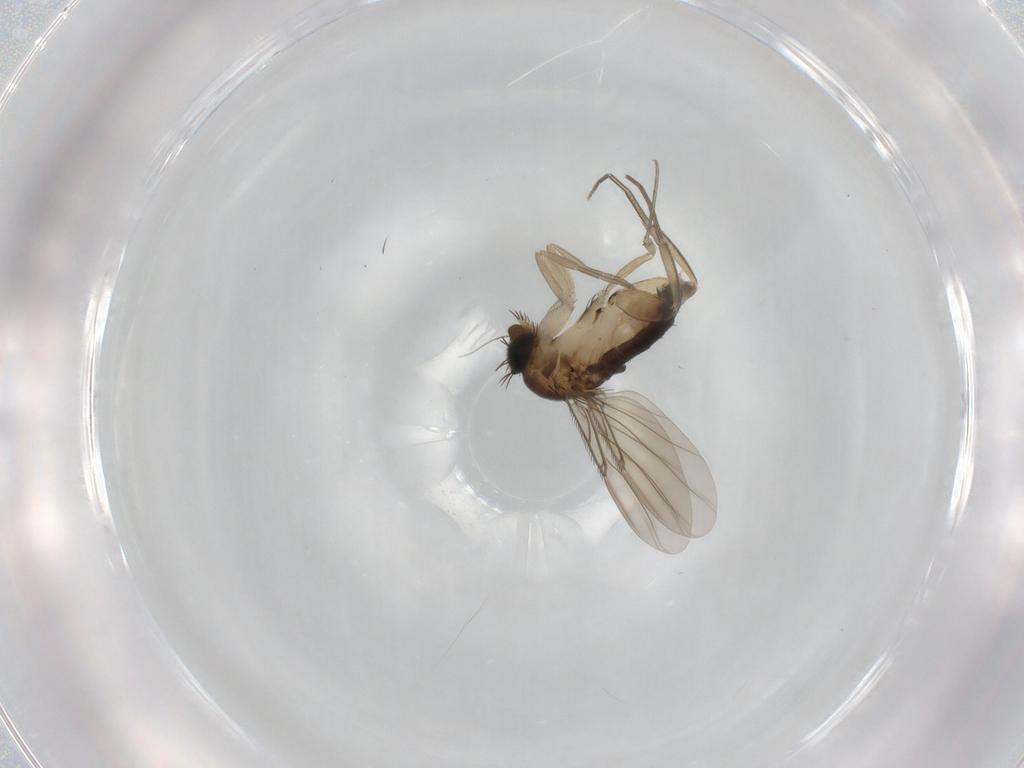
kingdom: Animalia
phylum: Arthropoda
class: Insecta
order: Diptera
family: Phoridae
